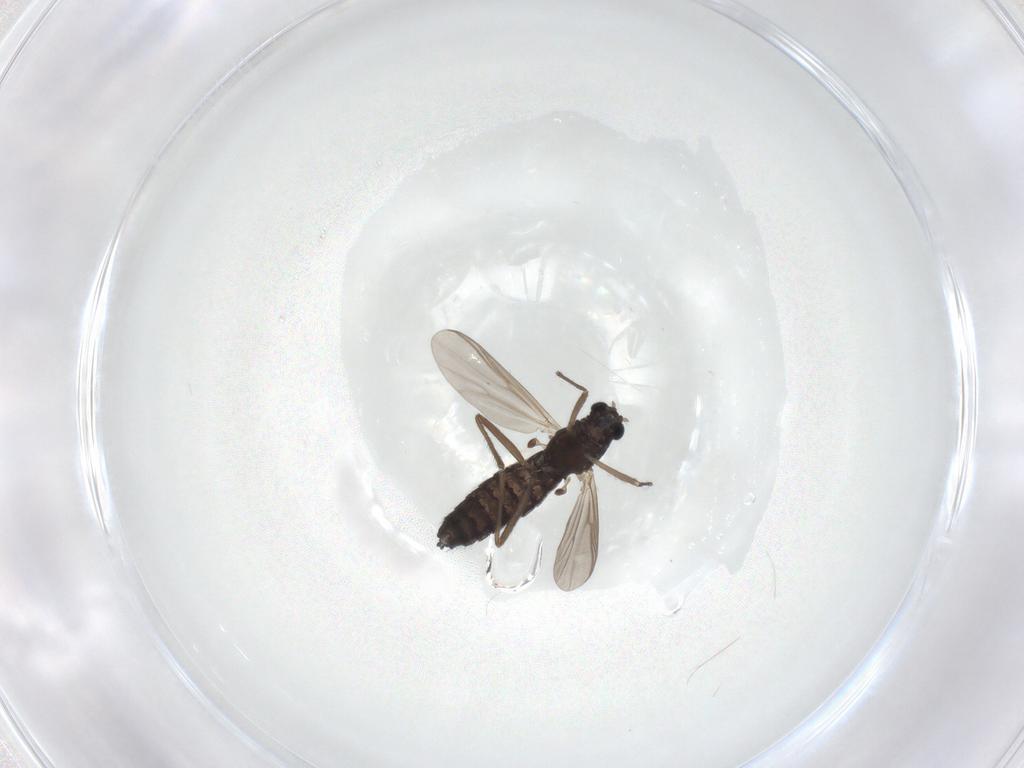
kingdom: Animalia
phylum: Arthropoda
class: Insecta
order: Diptera
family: Chironomidae
